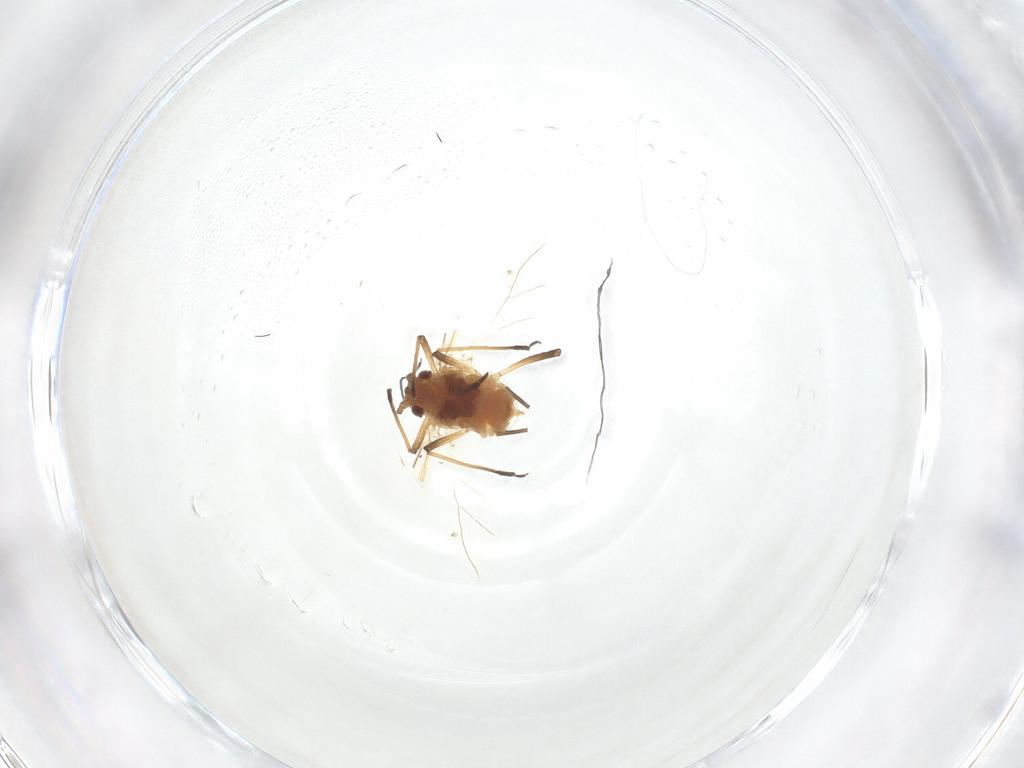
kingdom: Animalia
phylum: Arthropoda
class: Insecta
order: Hemiptera
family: Aphididae
